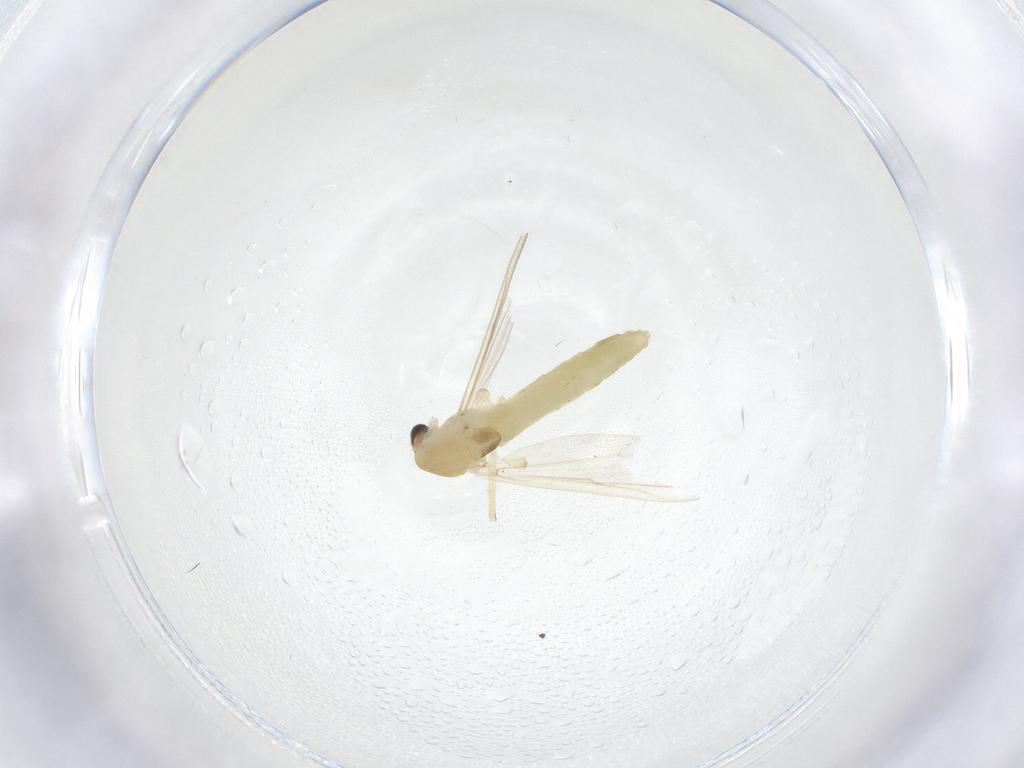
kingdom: Animalia
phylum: Arthropoda
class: Insecta
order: Diptera
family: Chironomidae
